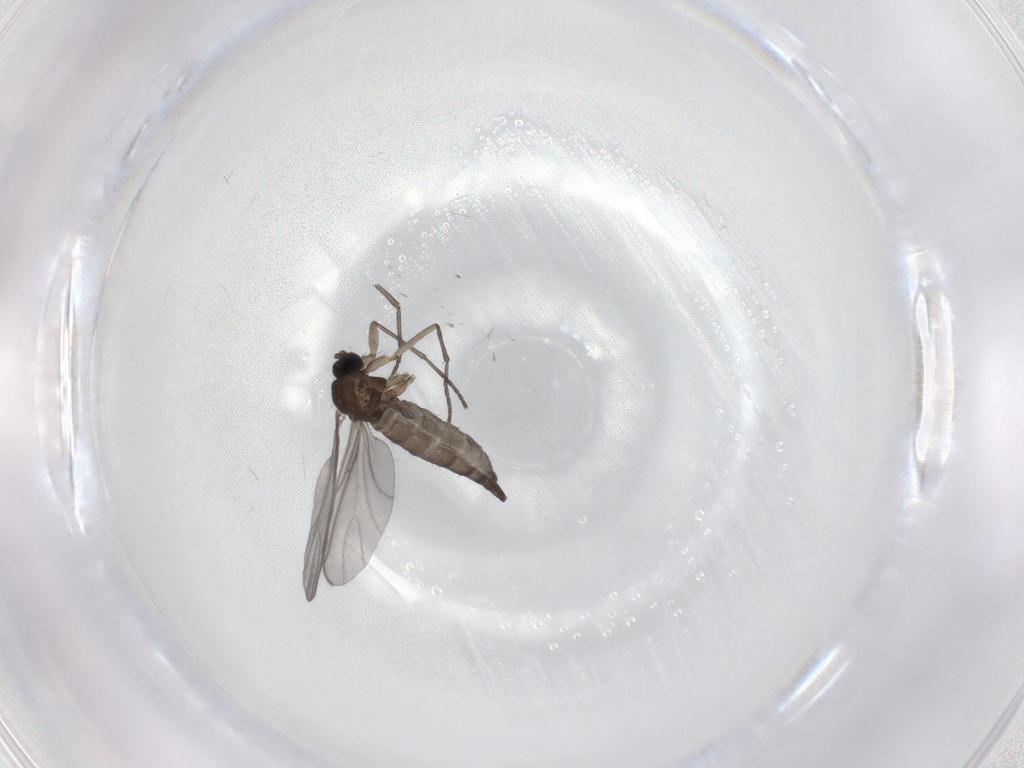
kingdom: Animalia
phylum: Arthropoda
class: Insecta
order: Diptera
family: Sciaridae
